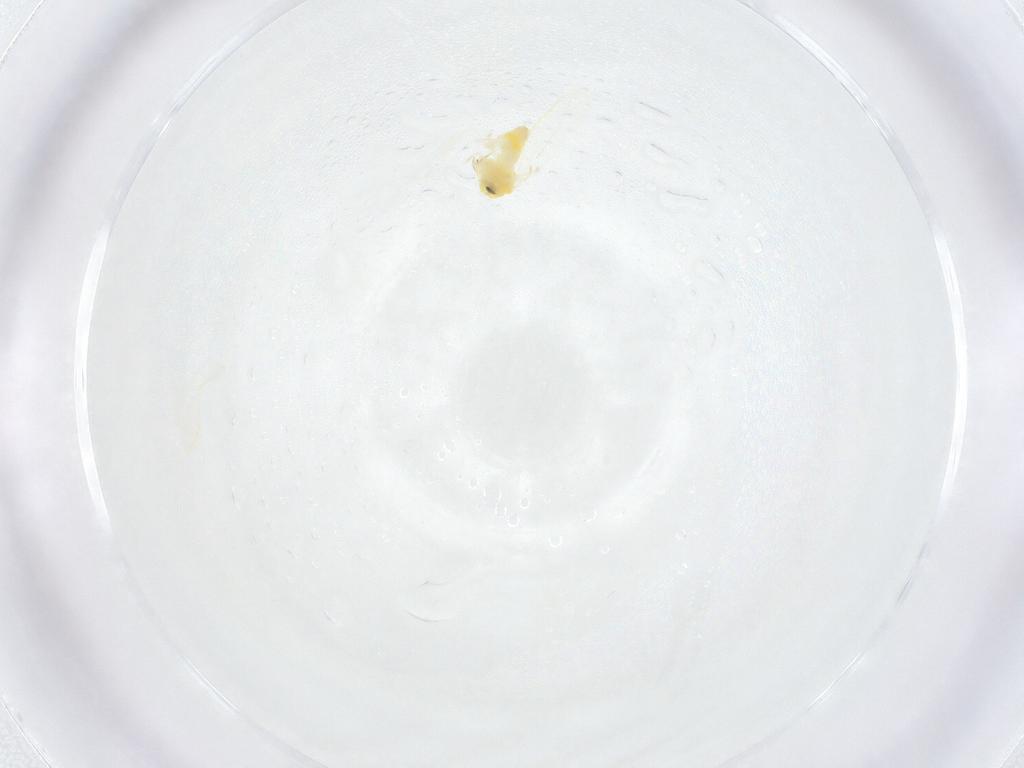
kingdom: Animalia
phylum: Arthropoda
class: Insecta
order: Hemiptera
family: Aleyrodidae
